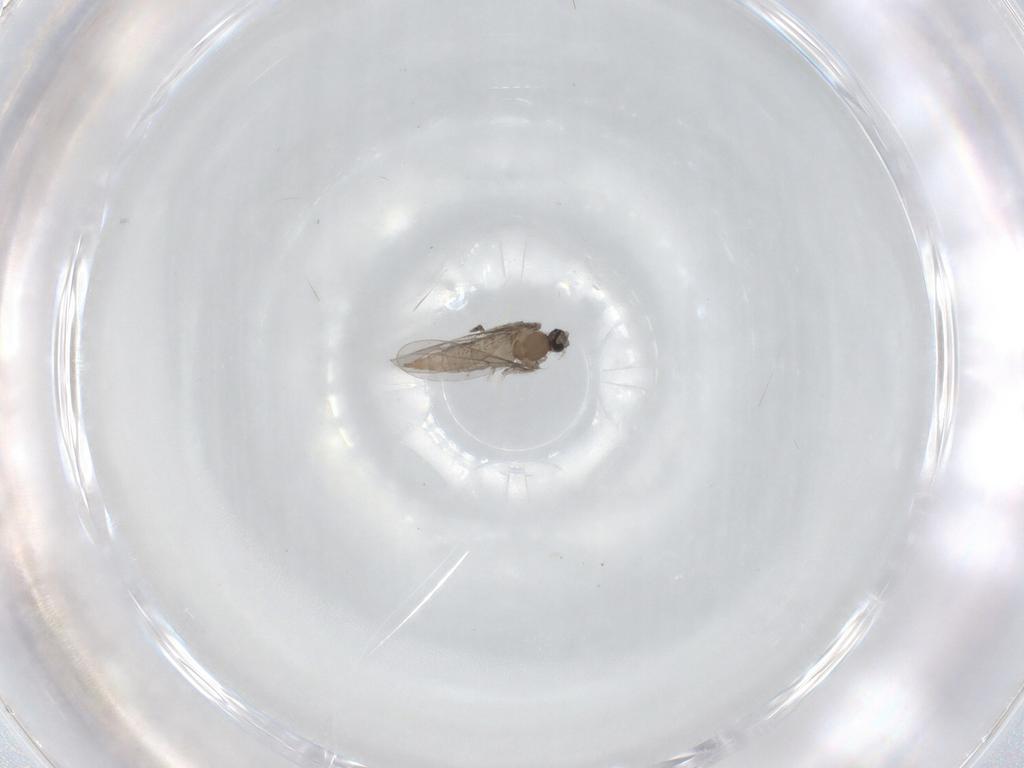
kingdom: Animalia
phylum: Arthropoda
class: Insecta
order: Diptera
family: Cecidomyiidae
